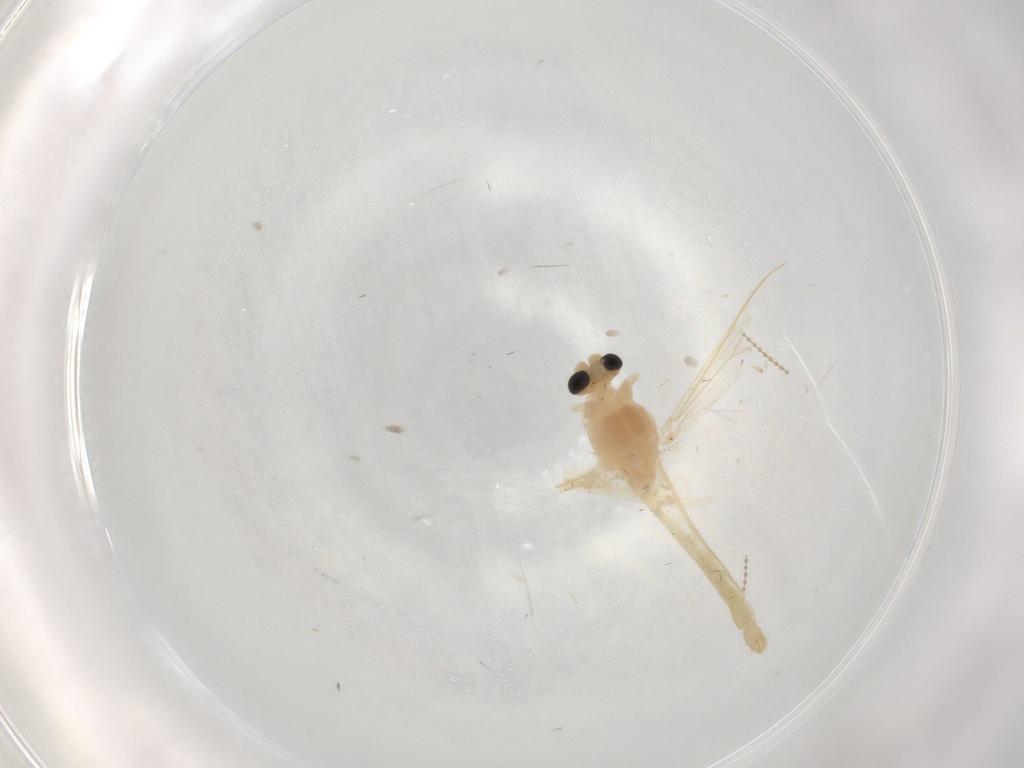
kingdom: Animalia
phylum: Arthropoda
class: Insecta
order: Diptera
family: Chironomidae
